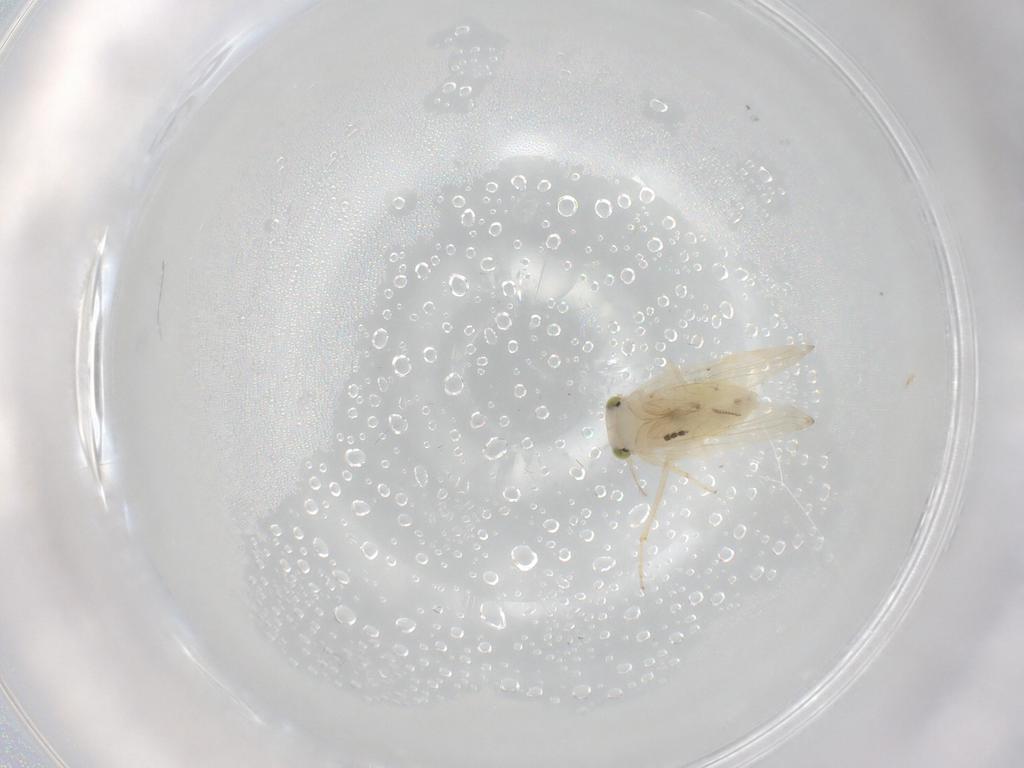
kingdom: Animalia
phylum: Arthropoda
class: Insecta
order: Psocodea
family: Lepidopsocidae
